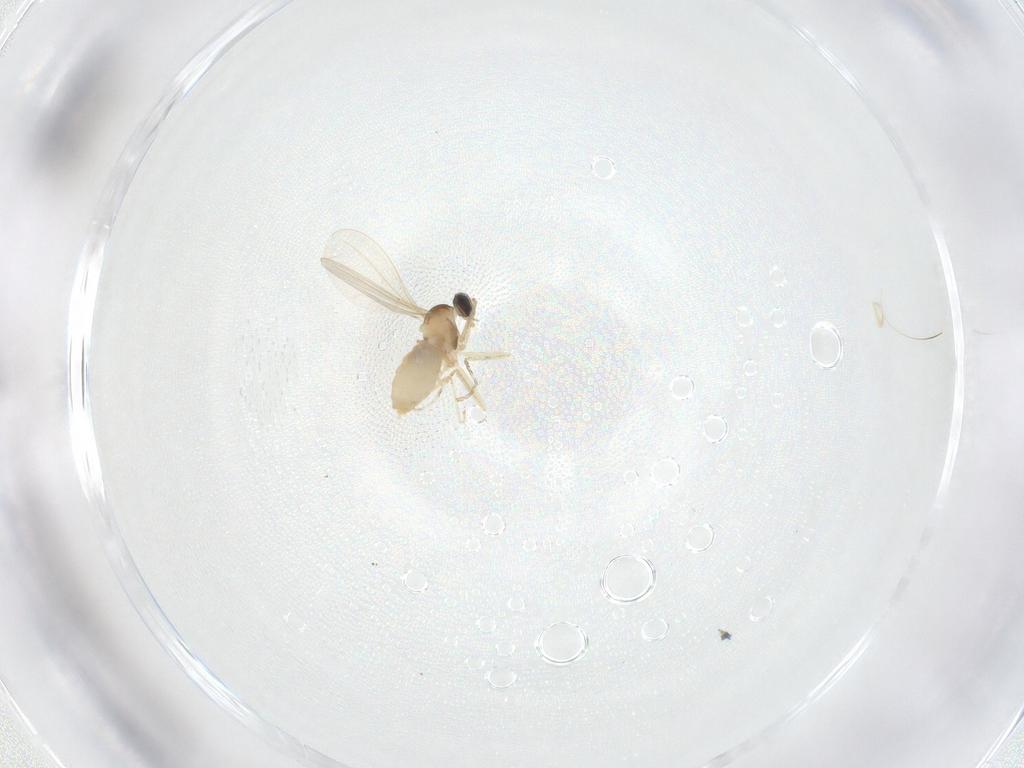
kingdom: Animalia
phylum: Arthropoda
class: Insecta
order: Diptera
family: Cecidomyiidae
